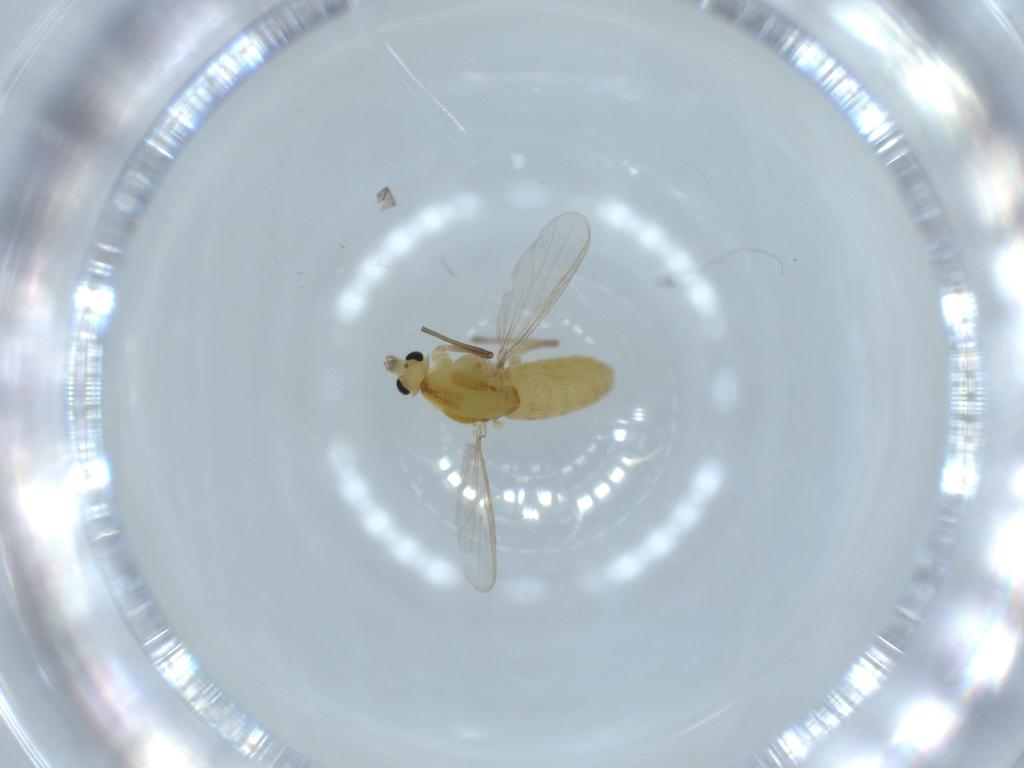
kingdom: Animalia
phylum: Arthropoda
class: Insecta
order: Diptera
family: Chironomidae
